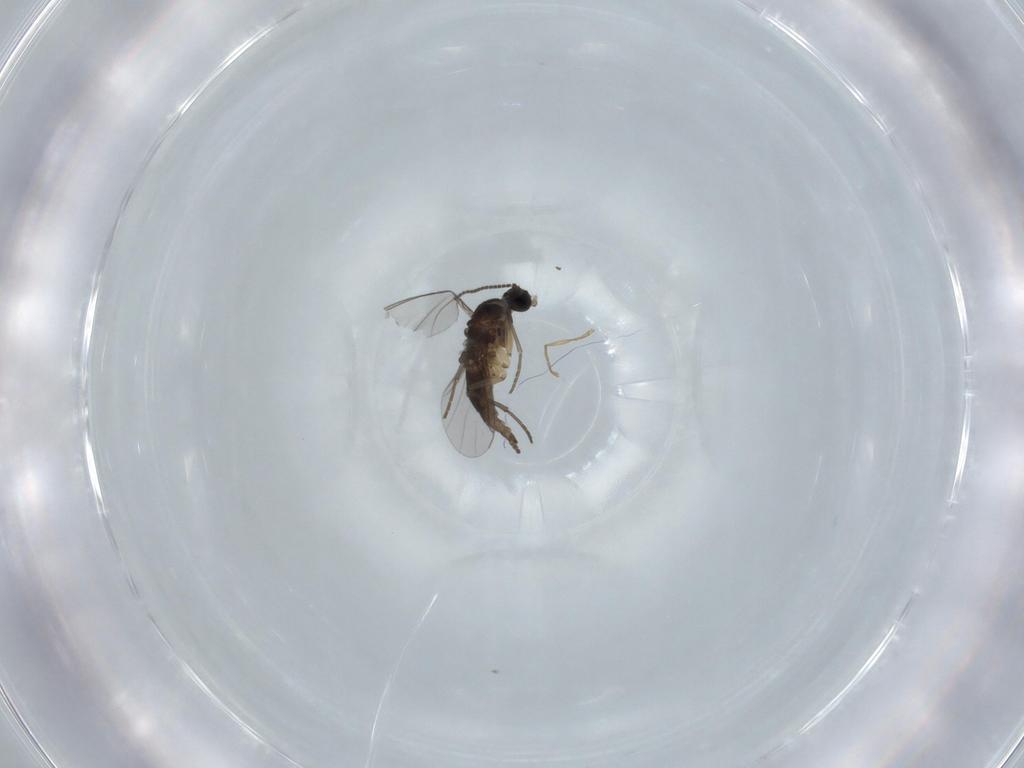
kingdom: Animalia
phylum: Arthropoda
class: Insecta
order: Diptera
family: Sciaridae
